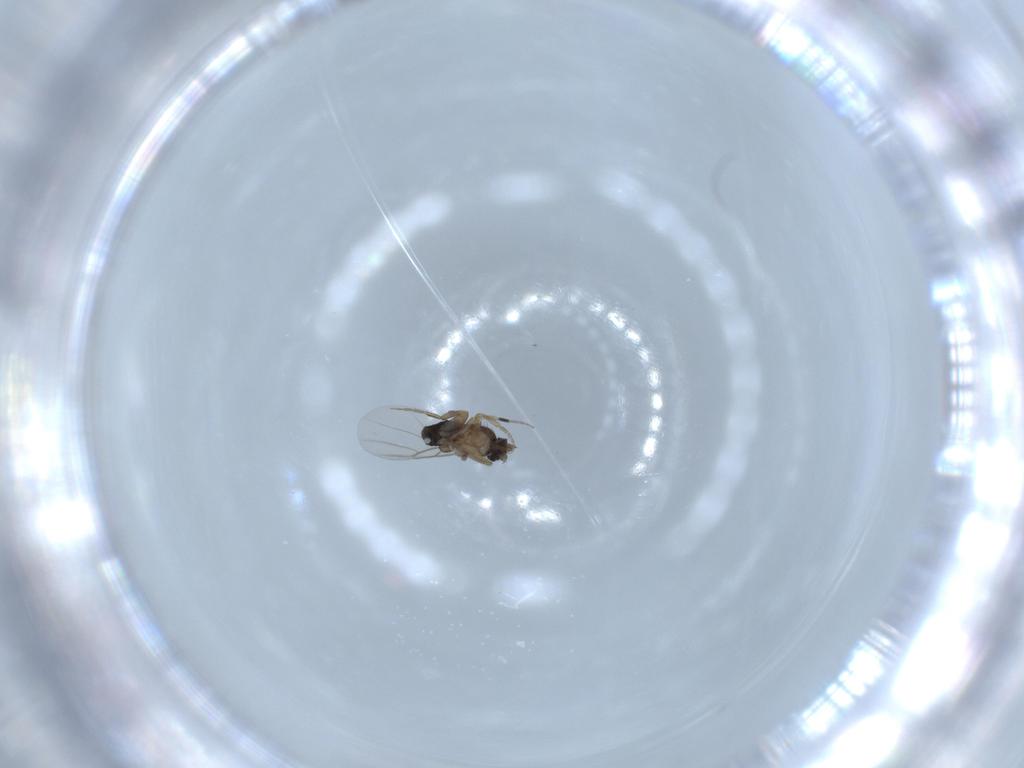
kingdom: Animalia
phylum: Arthropoda
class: Insecta
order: Diptera
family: Phoridae
